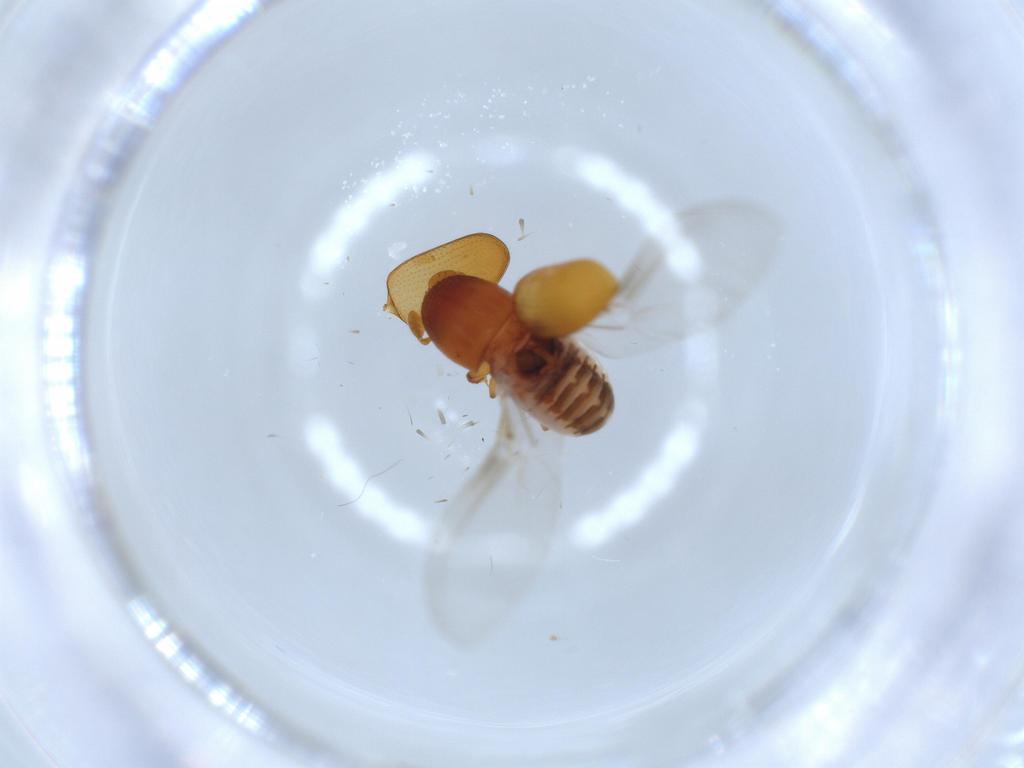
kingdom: Animalia
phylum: Arthropoda
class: Insecta
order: Coleoptera
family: Curculionidae
